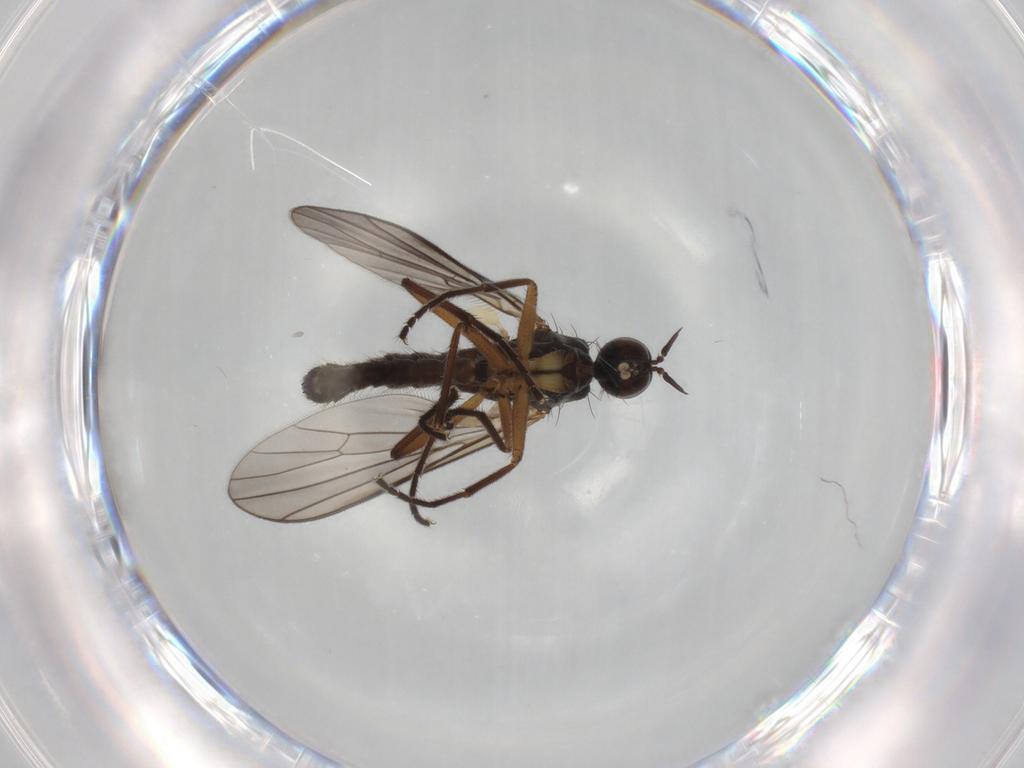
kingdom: Animalia
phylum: Arthropoda
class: Insecta
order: Diptera
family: Empididae
